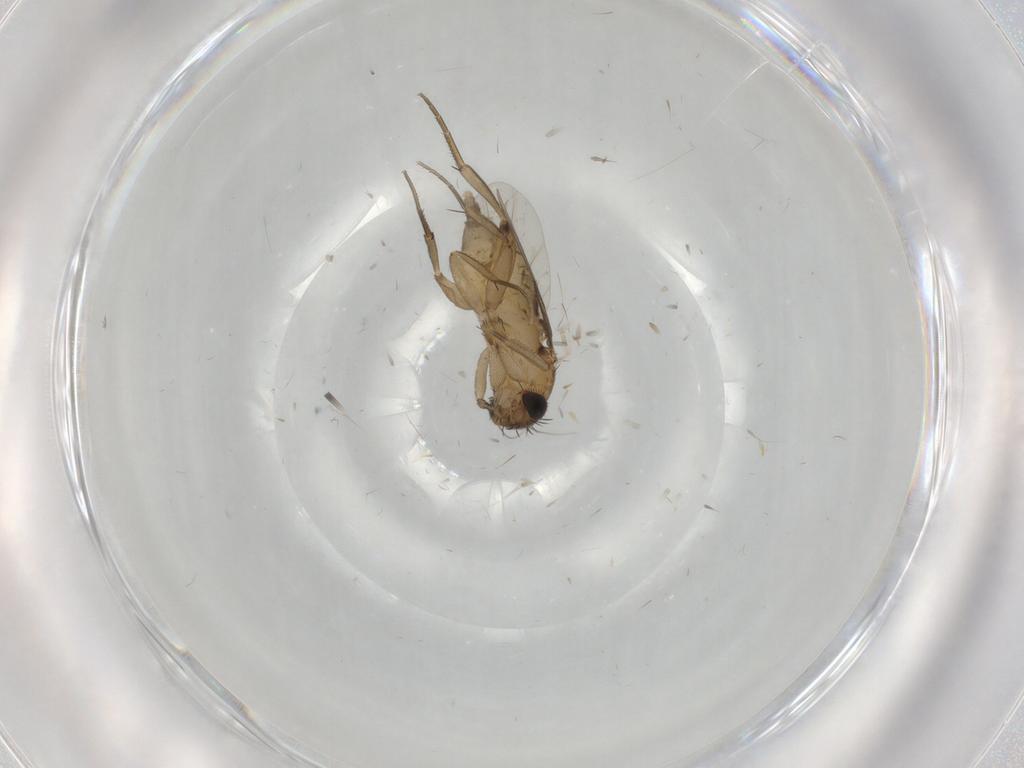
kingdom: Animalia
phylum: Arthropoda
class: Insecta
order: Diptera
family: Phoridae
